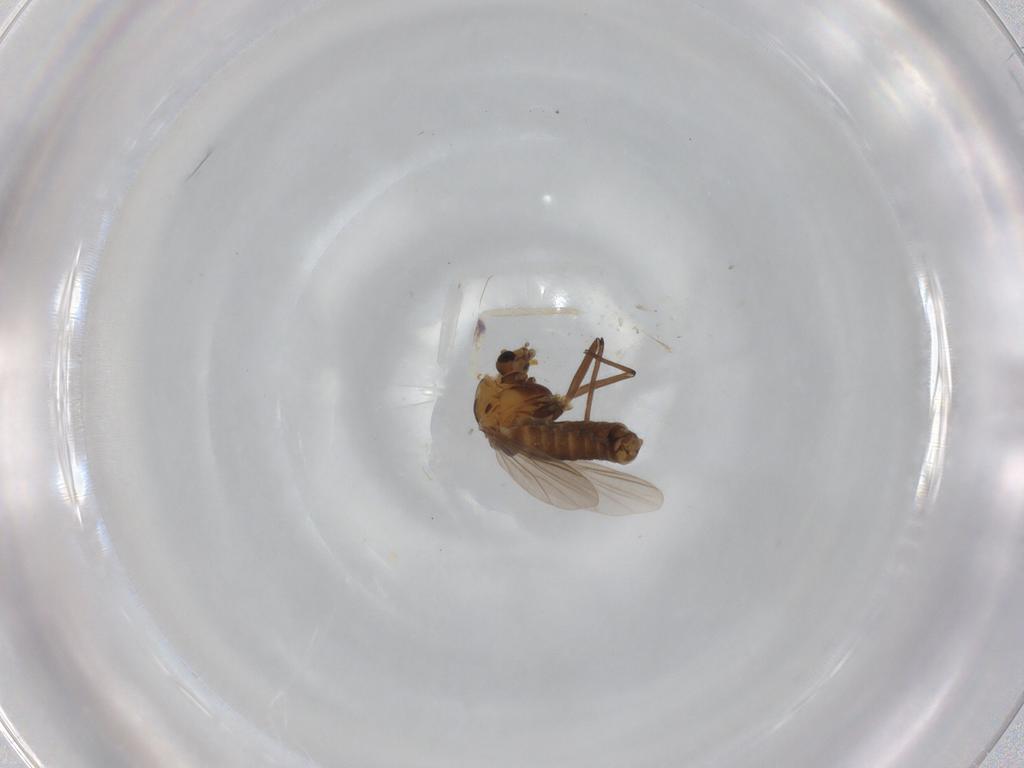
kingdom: Animalia
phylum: Arthropoda
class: Insecta
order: Diptera
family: Chironomidae
